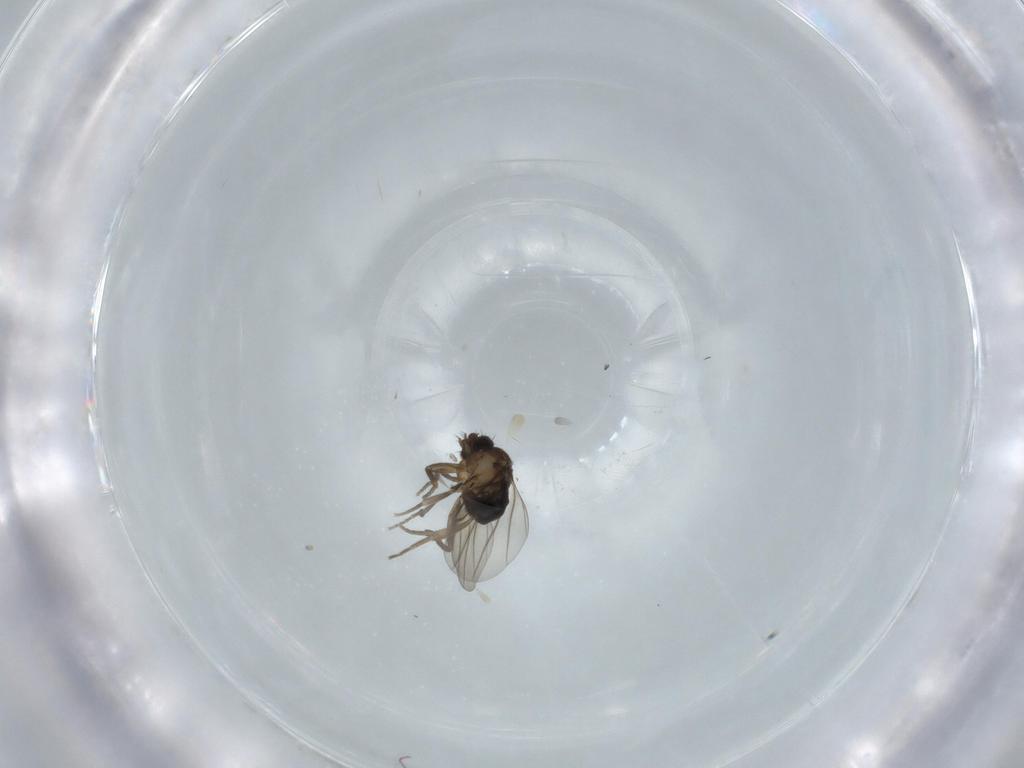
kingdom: Animalia
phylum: Arthropoda
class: Insecta
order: Diptera
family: Phoridae
